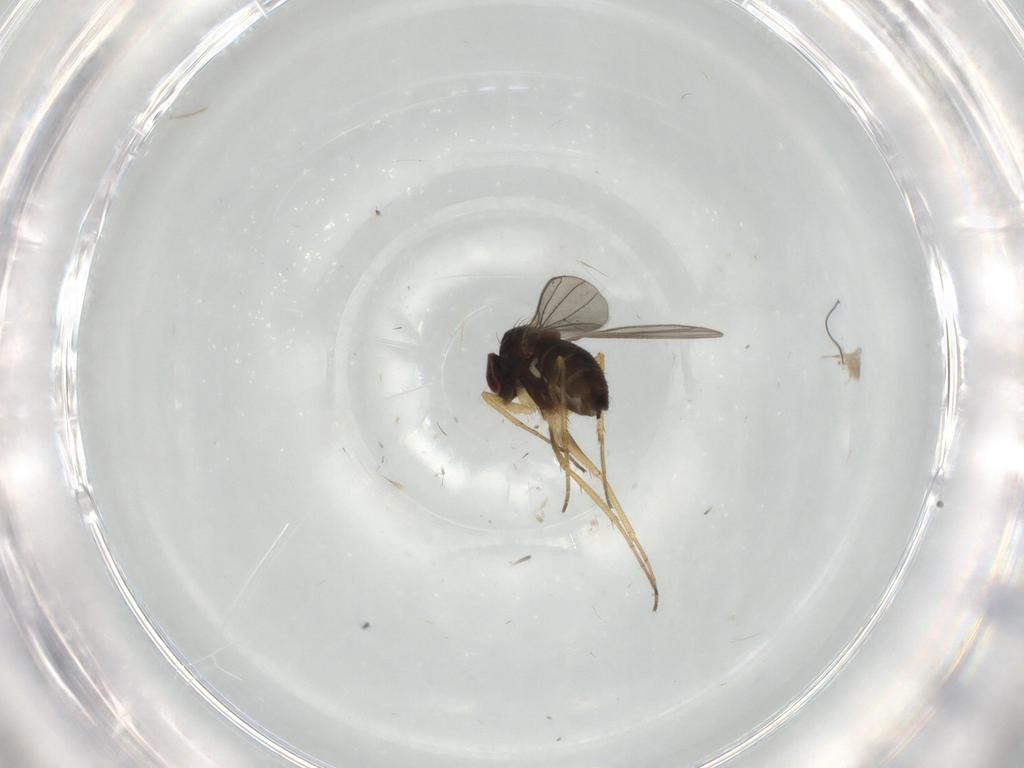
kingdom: Animalia
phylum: Arthropoda
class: Insecta
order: Diptera
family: Dolichopodidae
